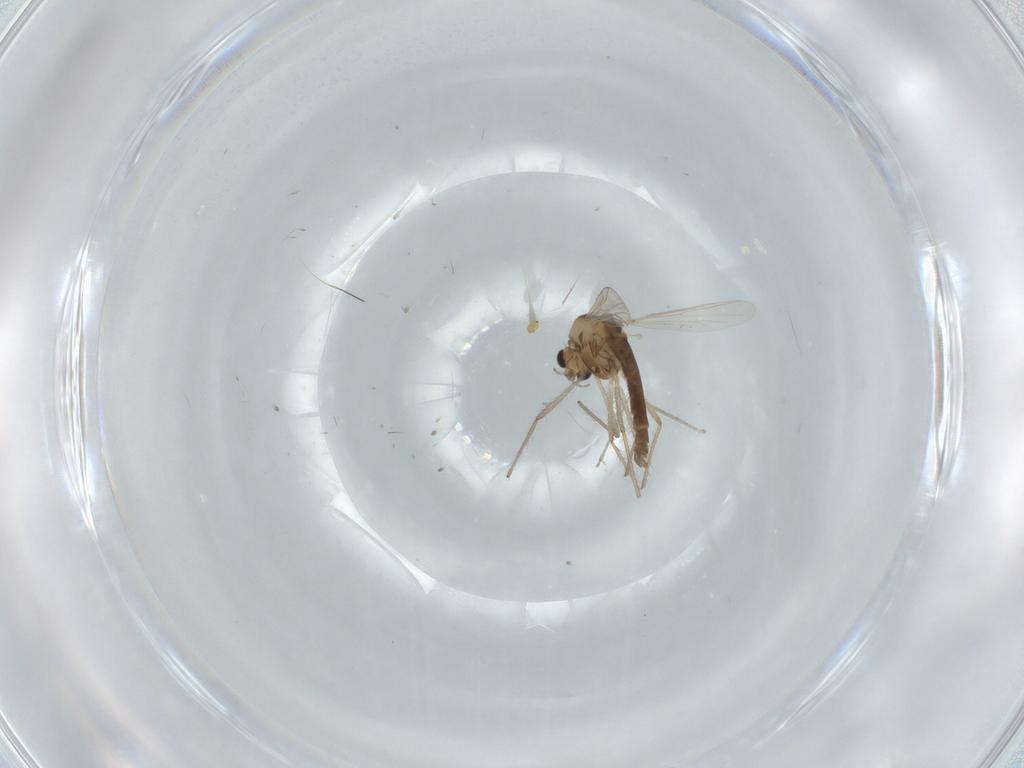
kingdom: Animalia
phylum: Arthropoda
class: Insecta
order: Diptera
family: Chironomidae
